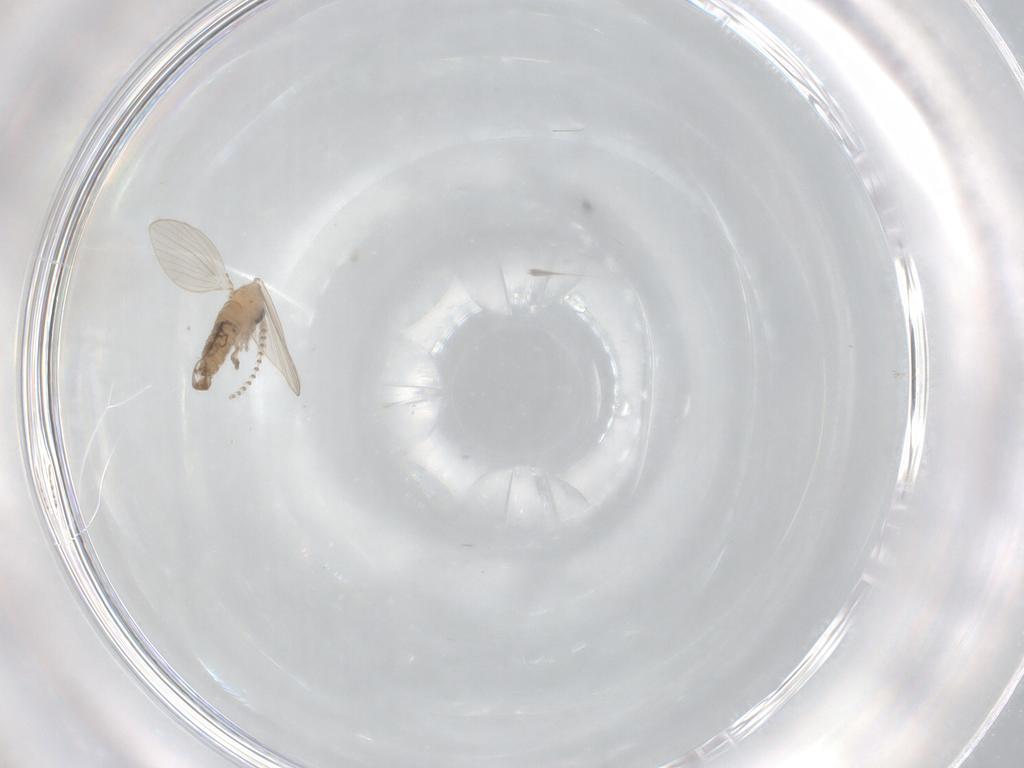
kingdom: Animalia
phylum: Arthropoda
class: Insecta
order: Diptera
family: Psychodidae
